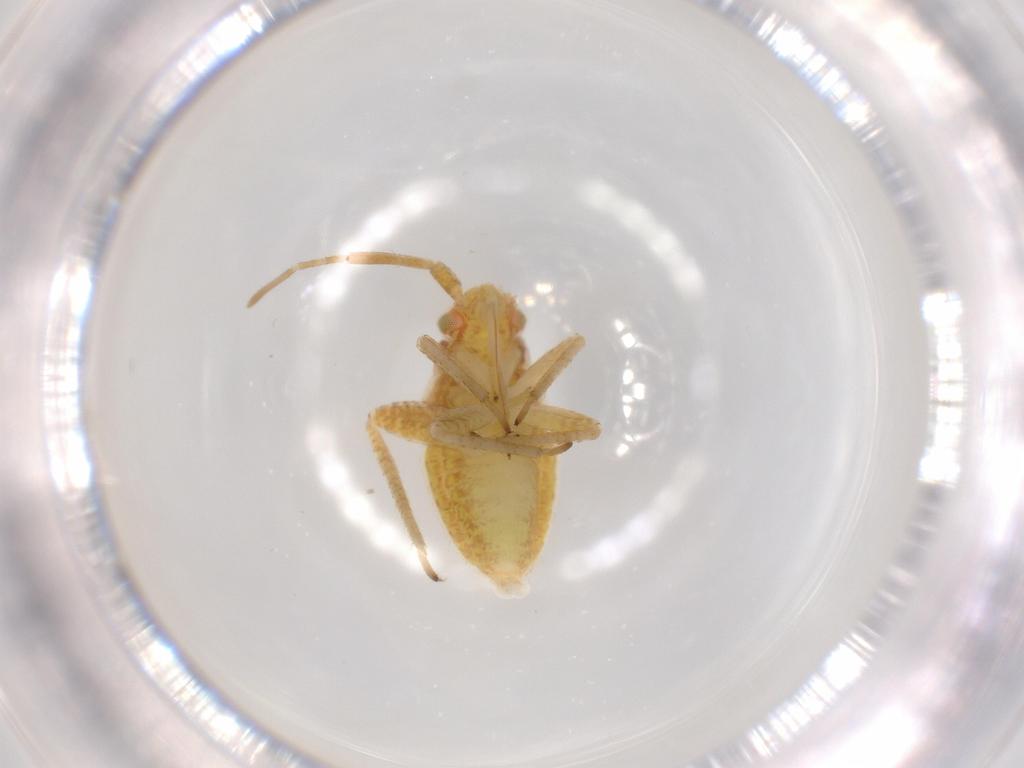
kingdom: Animalia
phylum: Arthropoda
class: Insecta
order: Hemiptera
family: Miridae
